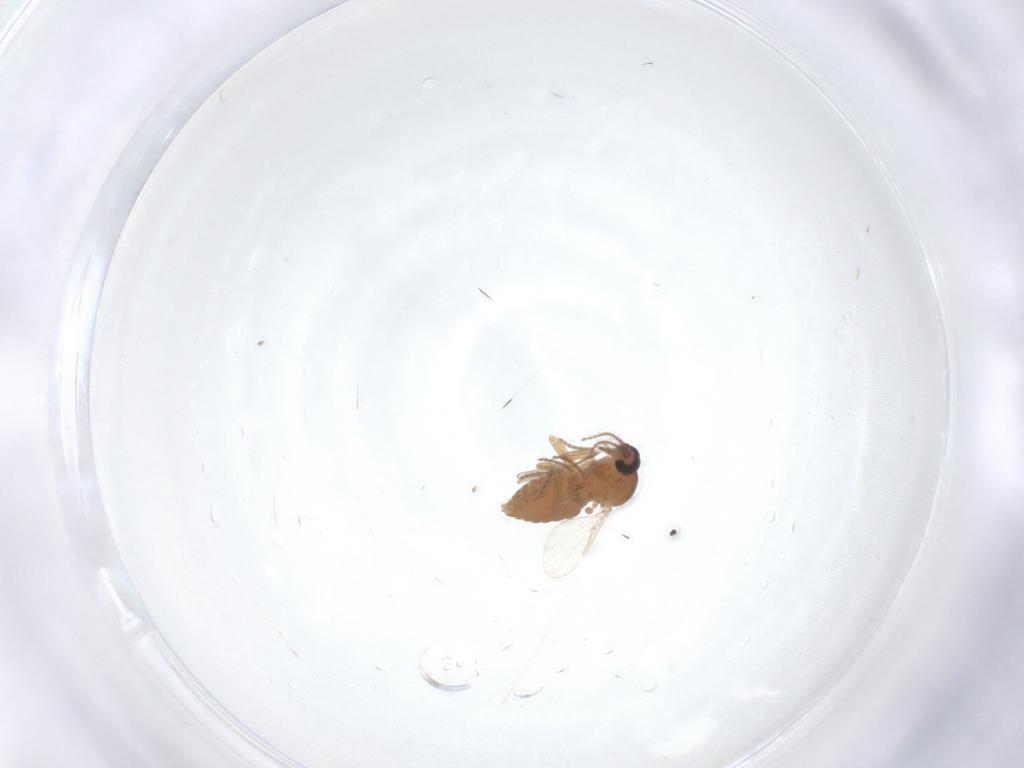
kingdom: Animalia
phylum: Arthropoda
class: Insecta
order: Diptera
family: Ceratopogonidae
